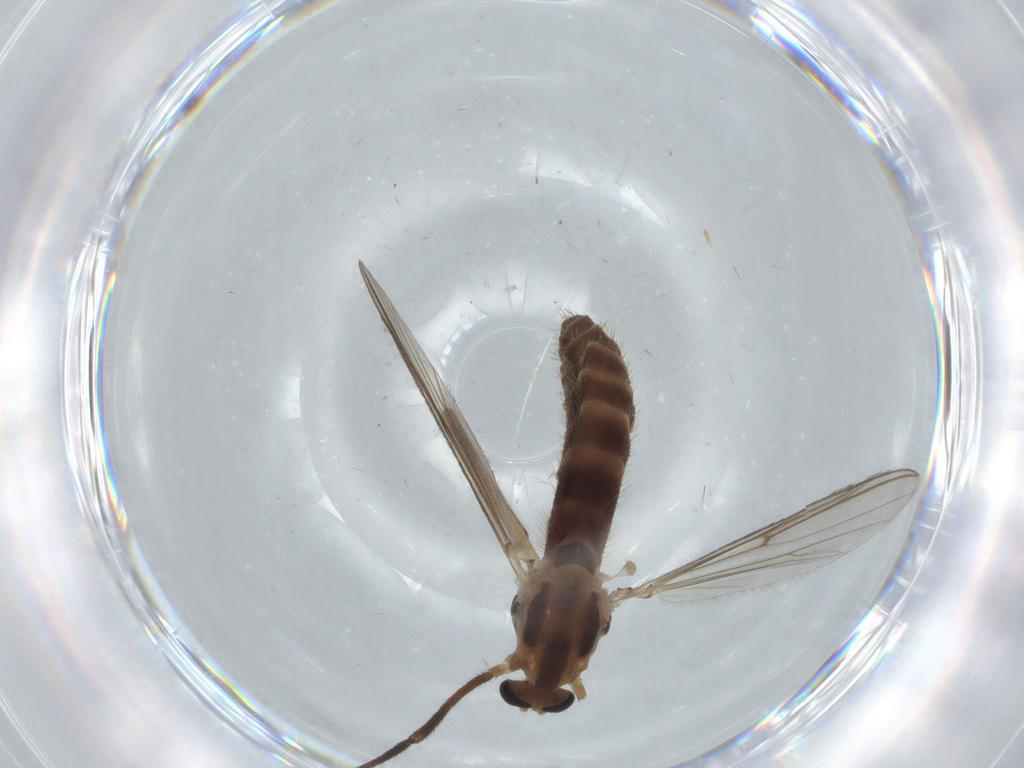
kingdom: Animalia
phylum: Arthropoda
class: Insecta
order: Diptera
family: Chironomidae
